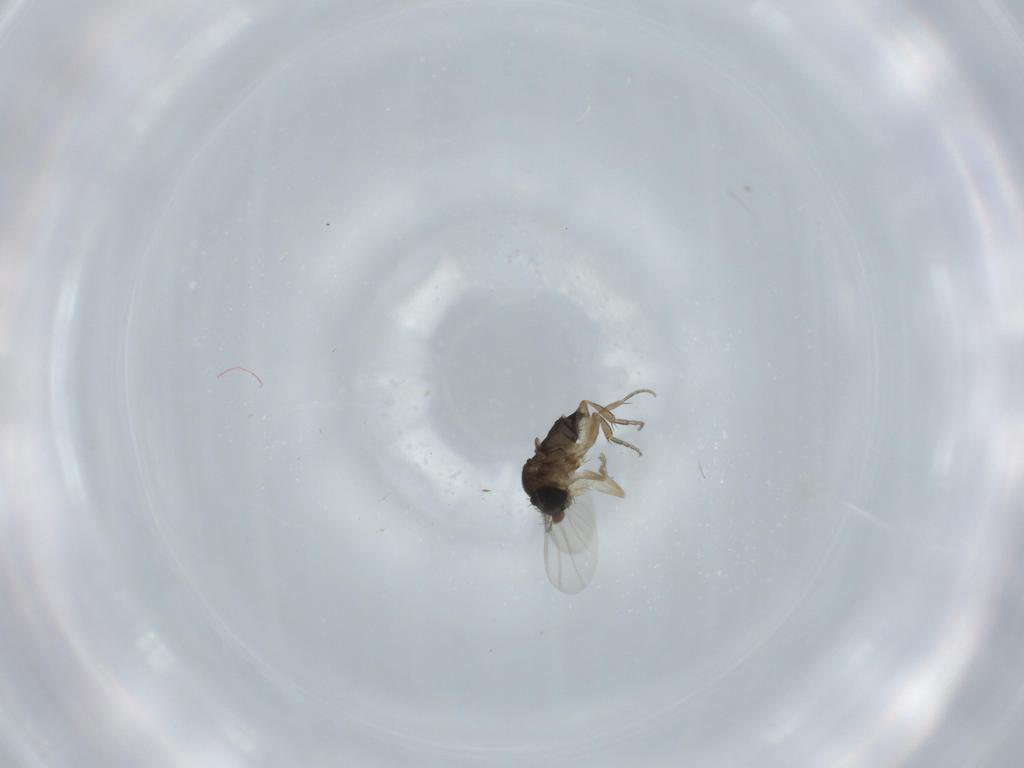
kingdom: Animalia
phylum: Arthropoda
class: Insecta
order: Diptera
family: Phoridae
